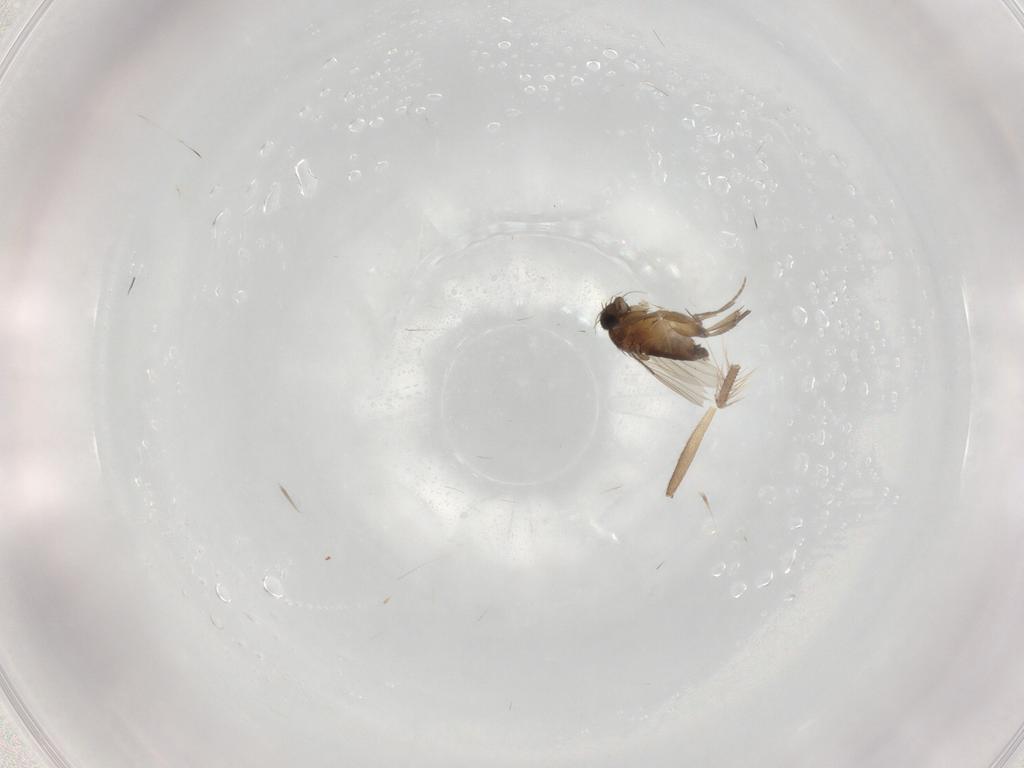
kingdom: Animalia
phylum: Arthropoda
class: Insecta
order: Diptera
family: Phoridae
